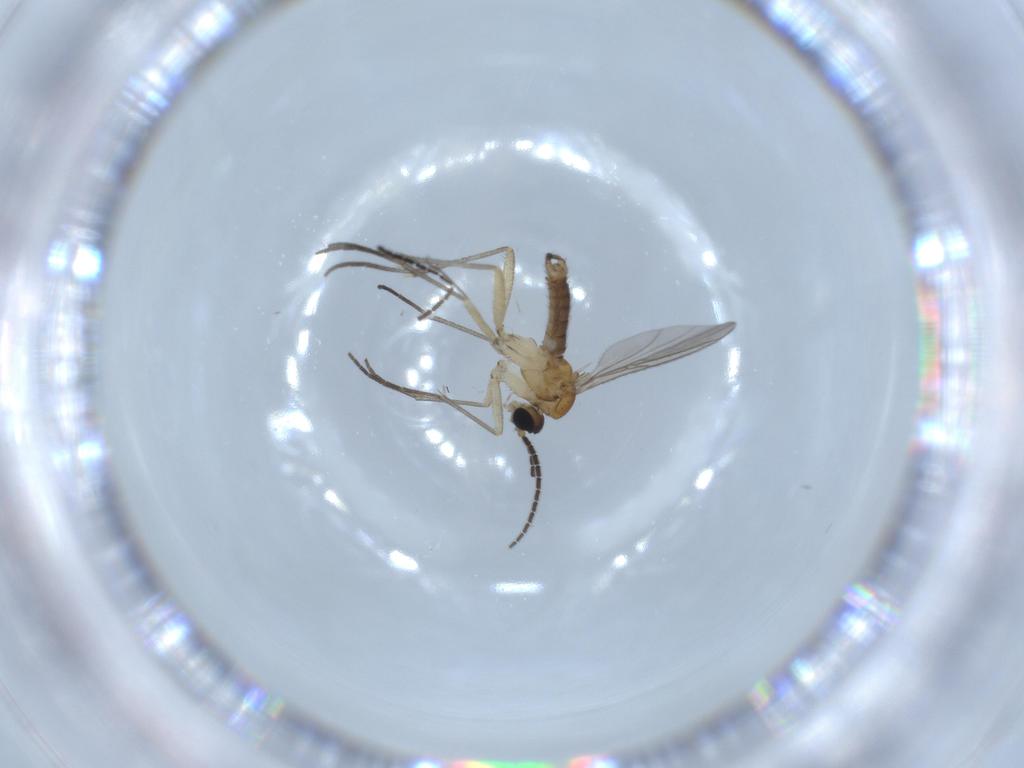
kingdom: Animalia
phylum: Arthropoda
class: Insecta
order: Diptera
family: Sciaridae
